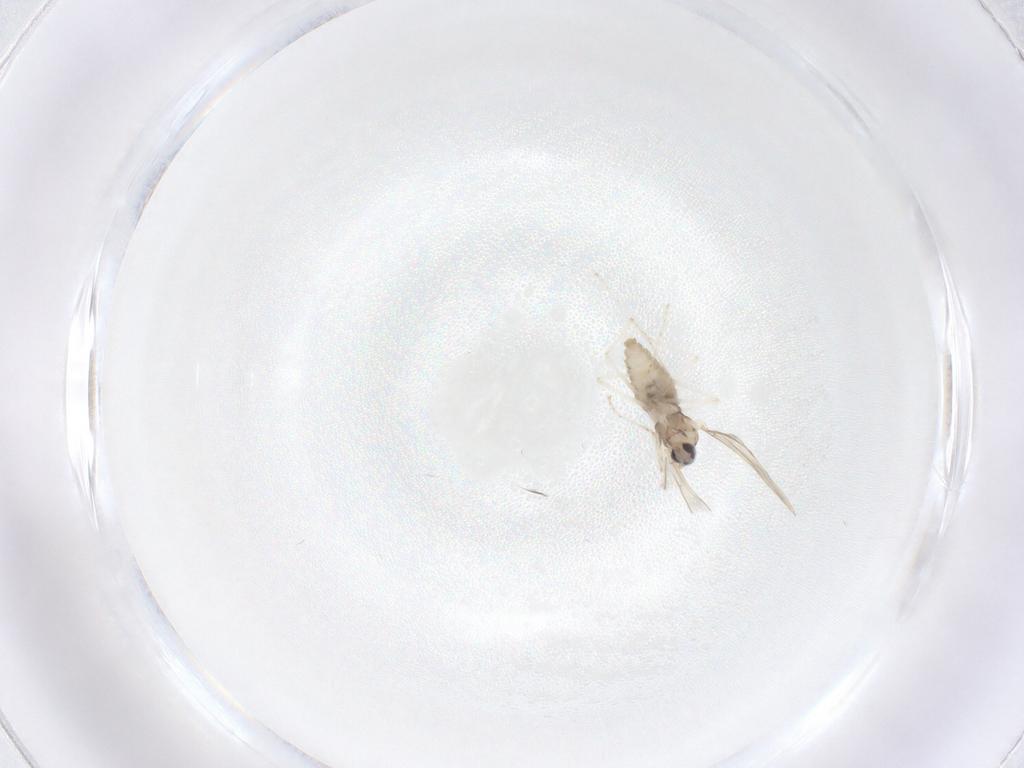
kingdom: Animalia
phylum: Arthropoda
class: Insecta
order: Diptera
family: Cecidomyiidae
